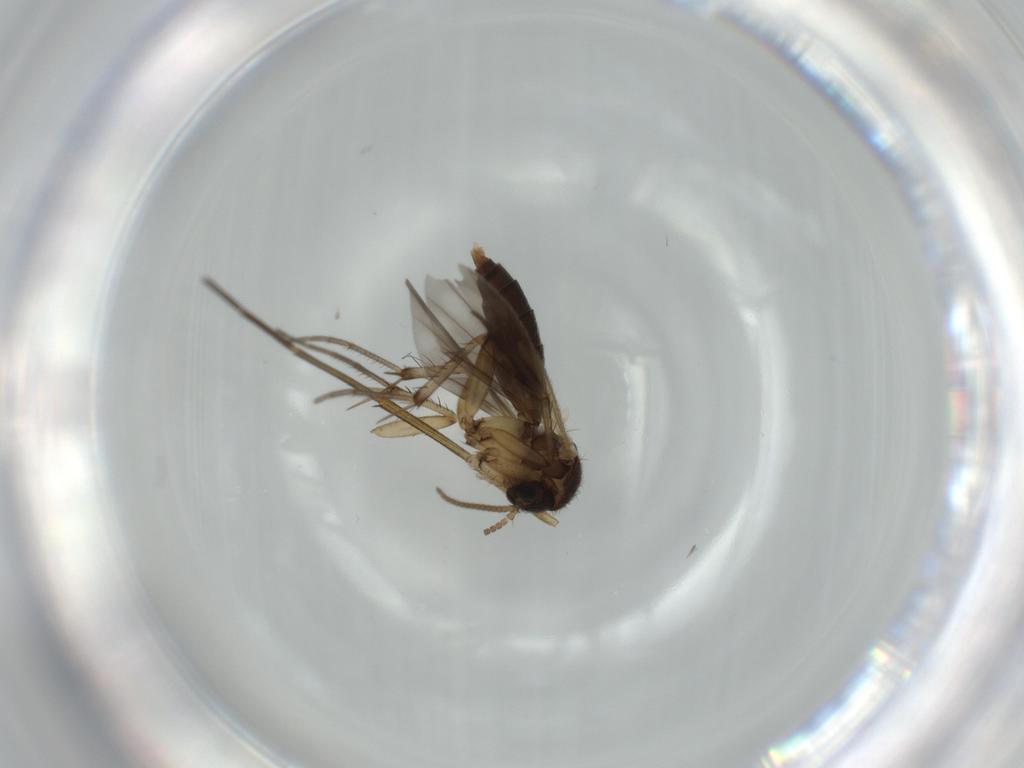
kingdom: Animalia
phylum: Arthropoda
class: Insecta
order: Diptera
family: Keroplatidae
